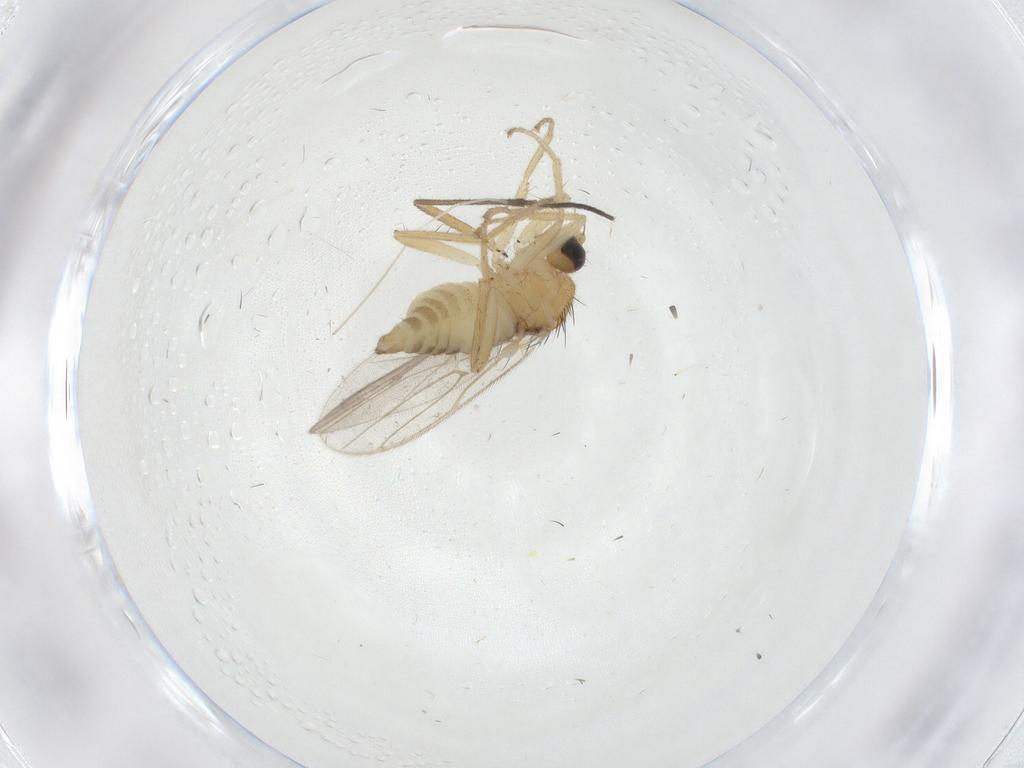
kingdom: Animalia
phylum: Arthropoda
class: Insecta
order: Diptera
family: Hybotidae
